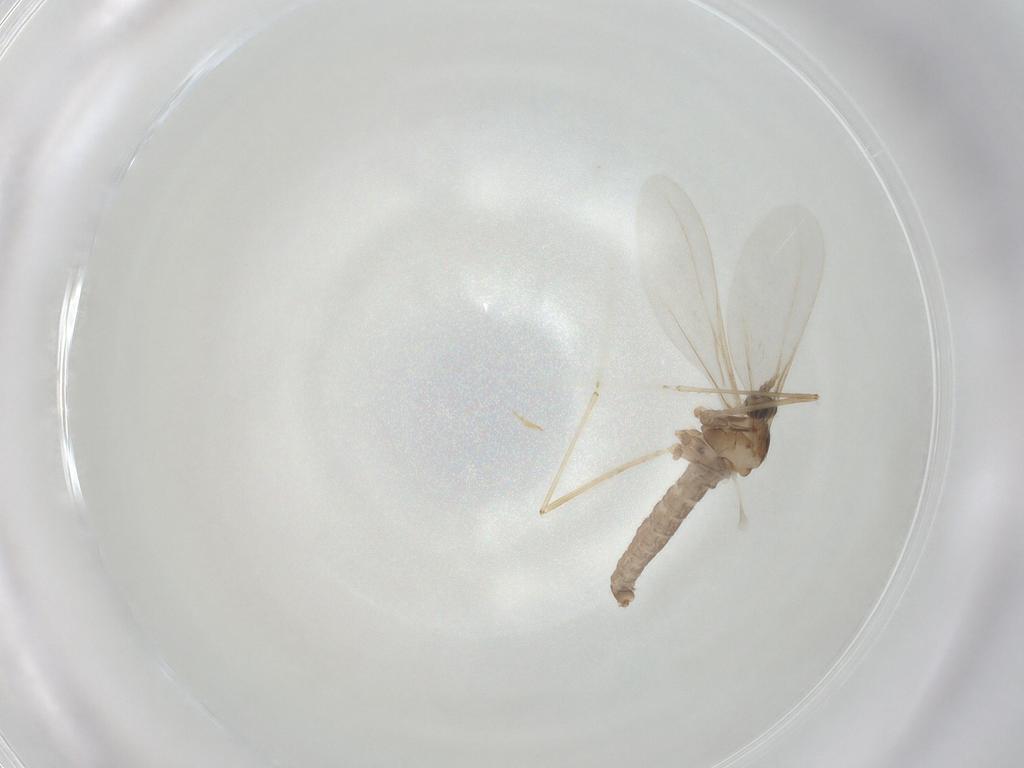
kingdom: Animalia
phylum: Arthropoda
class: Insecta
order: Diptera
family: Cecidomyiidae
